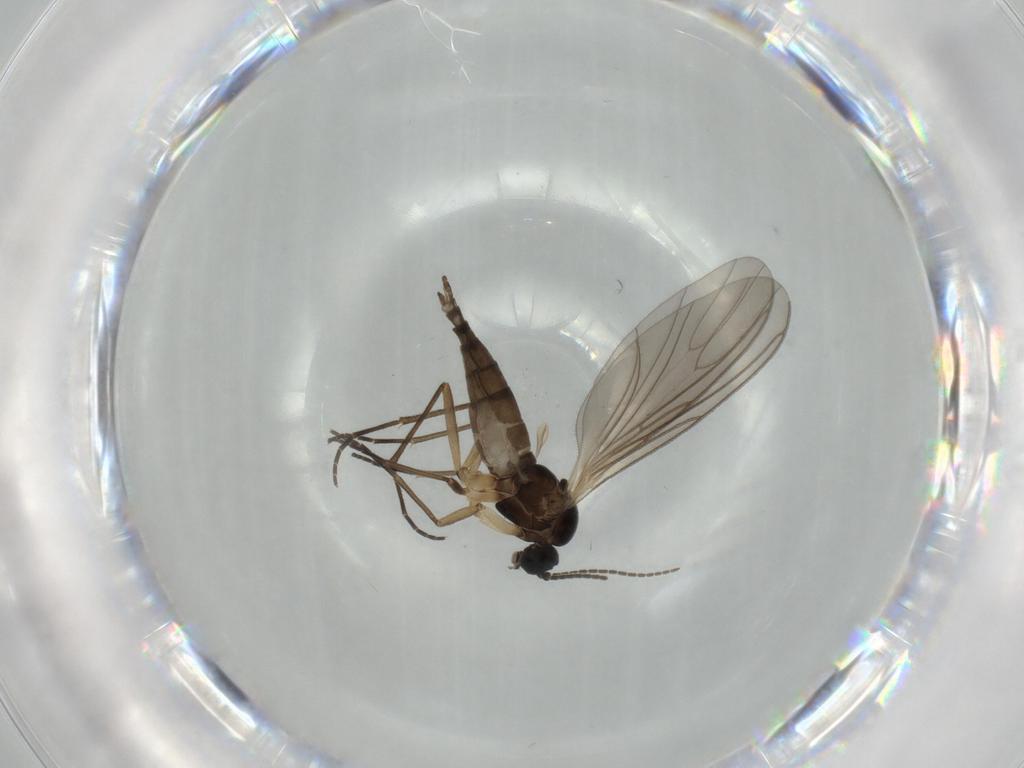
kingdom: Animalia
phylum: Arthropoda
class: Insecta
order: Diptera
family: Sciaridae
